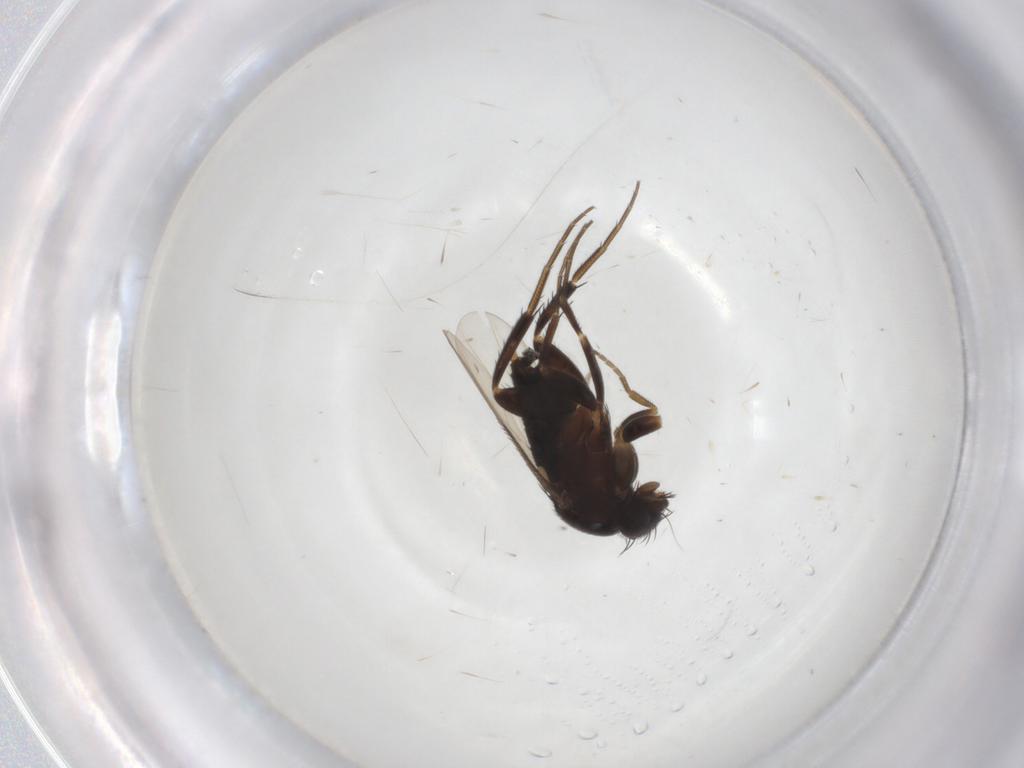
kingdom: Animalia
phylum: Arthropoda
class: Insecta
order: Diptera
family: Phoridae
